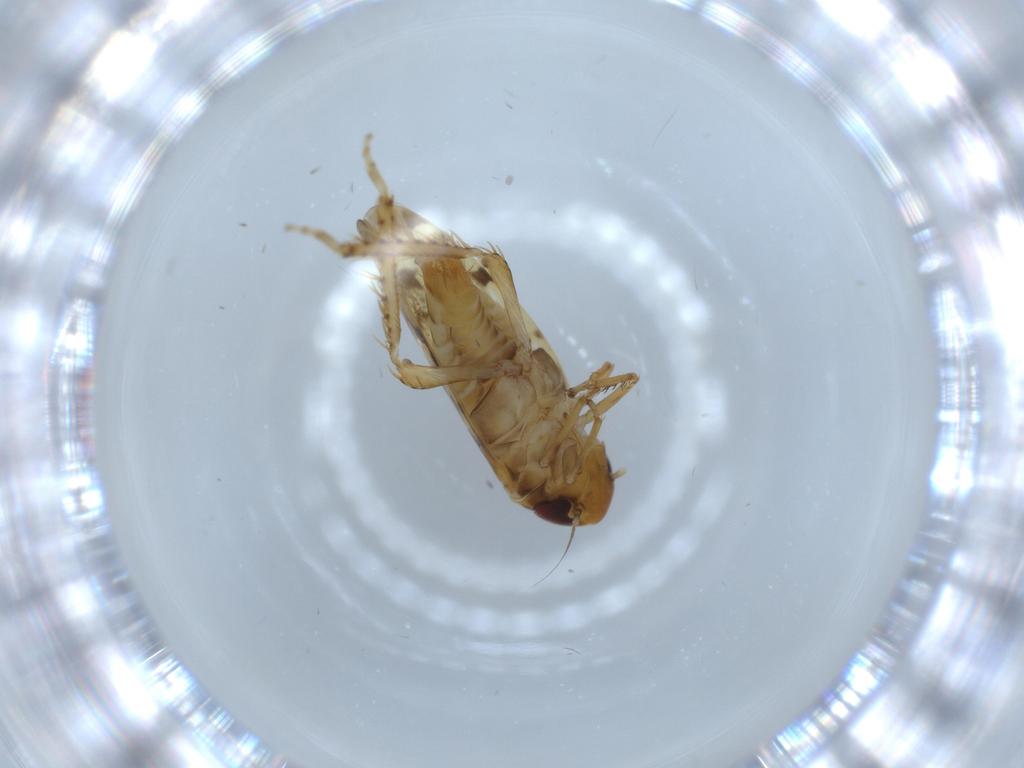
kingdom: Animalia
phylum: Arthropoda
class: Insecta
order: Hemiptera
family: Cicadellidae
